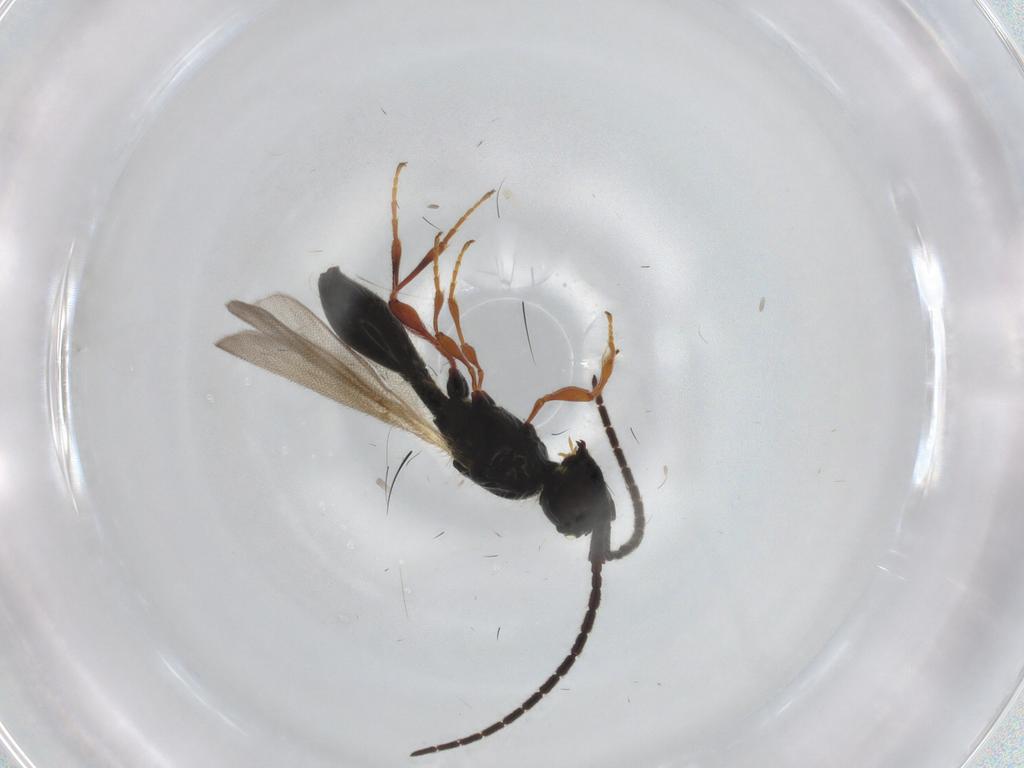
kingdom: Animalia
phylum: Arthropoda
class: Insecta
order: Hymenoptera
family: Diapriidae
